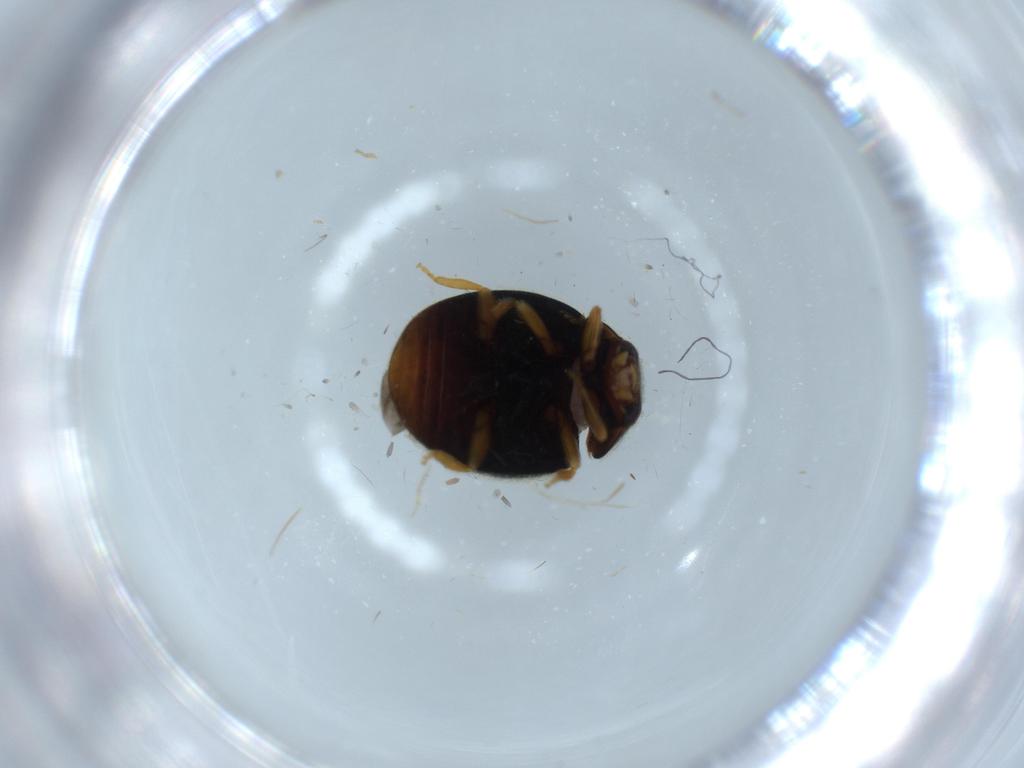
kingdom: Animalia
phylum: Arthropoda
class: Insecta
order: Coleoptera
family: Coccinellidae
